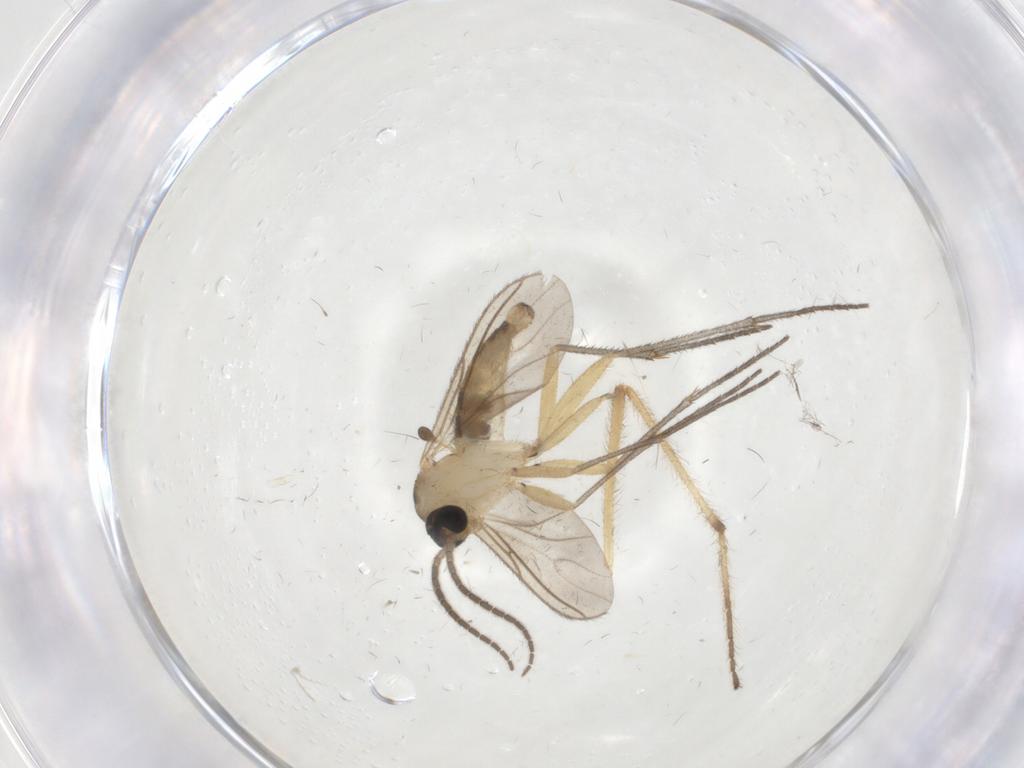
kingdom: Animalia
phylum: Arthropoda
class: Insecta
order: Diptera
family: Sciaridae
